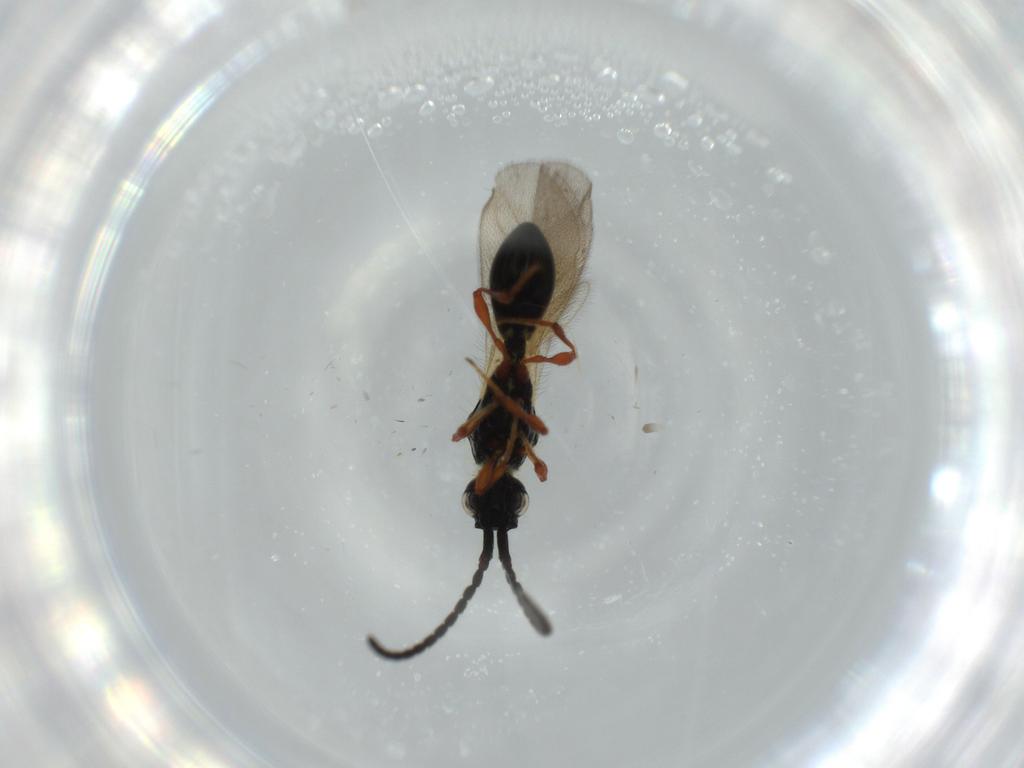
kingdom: Animalia
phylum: Arthropoda
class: Insecta
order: Hymenoptera
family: Diapriidae
